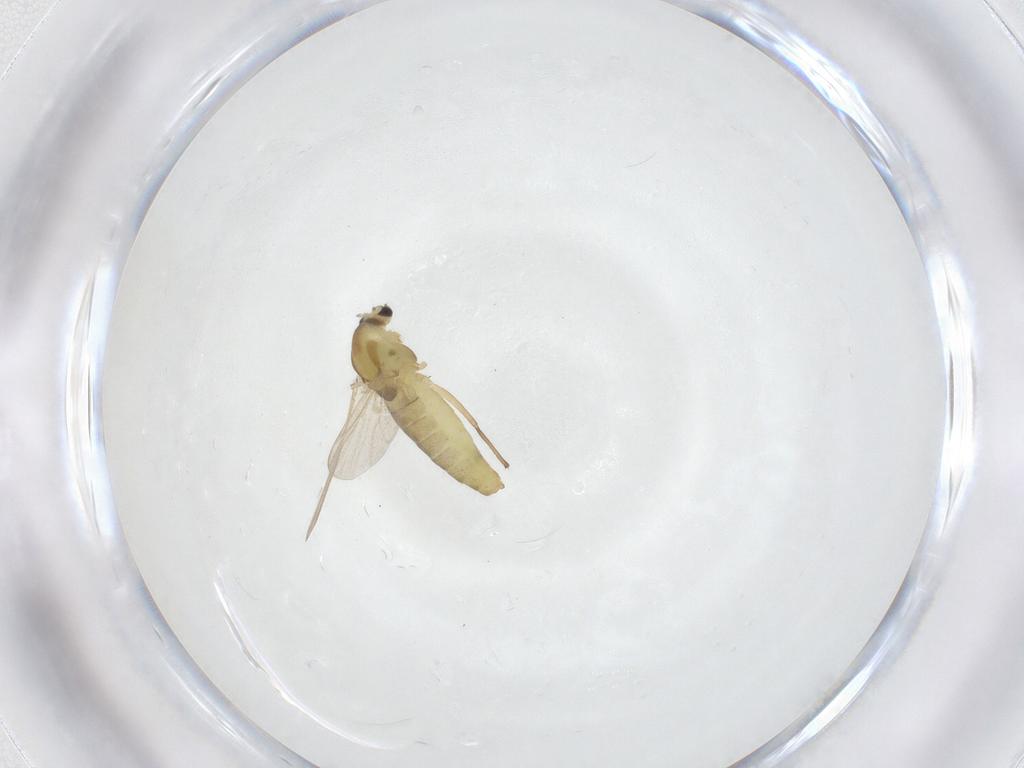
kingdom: Animalia
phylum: Arthropoda
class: Insecta
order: Diptera
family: Chironomidae
